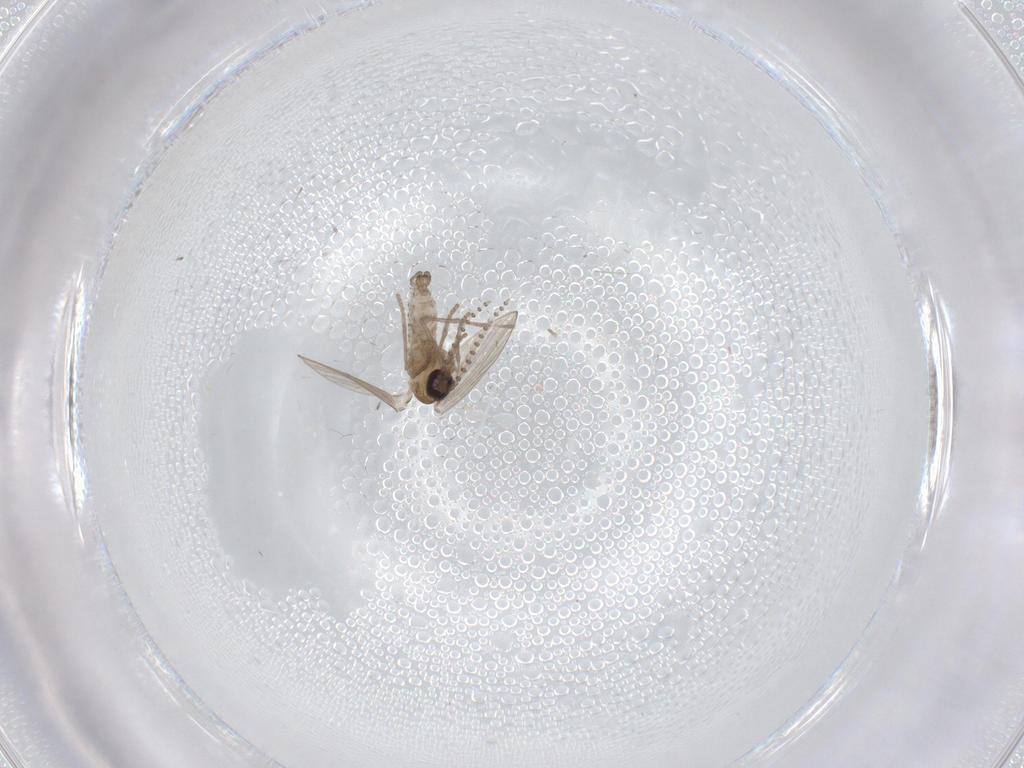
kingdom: Animalia
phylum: Arthropoda
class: Insecta
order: Diptera
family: Psychodidae
